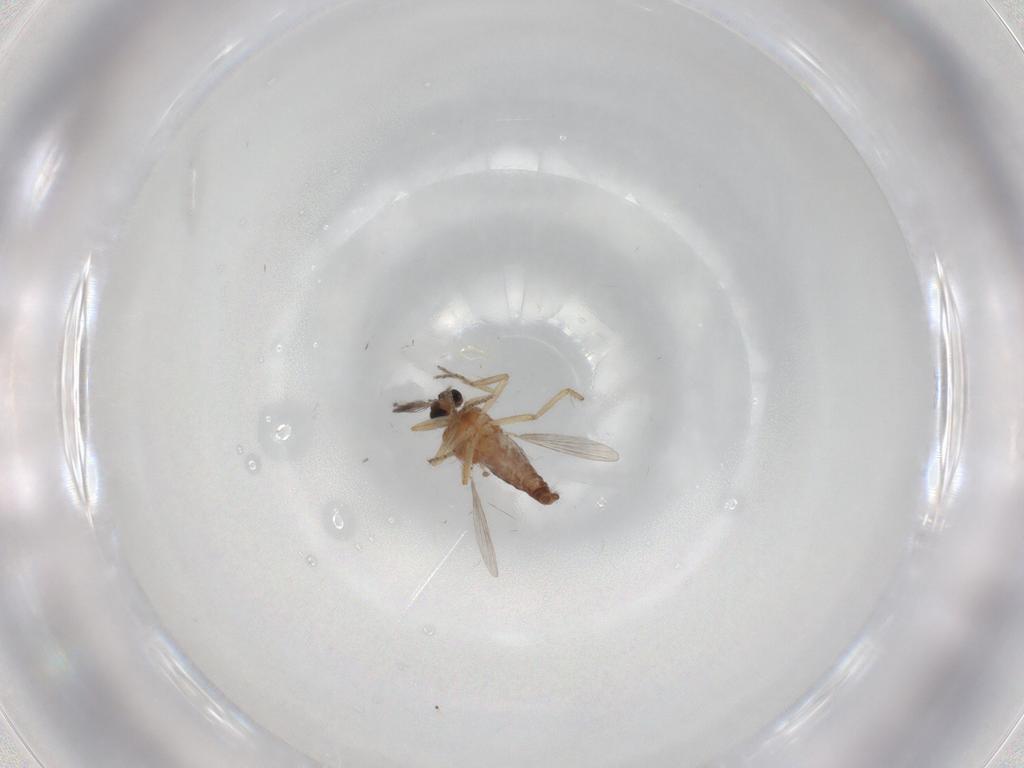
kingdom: Animalia
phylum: Arthropoda
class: Insecta
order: Diptera
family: Ceratopogonidae
